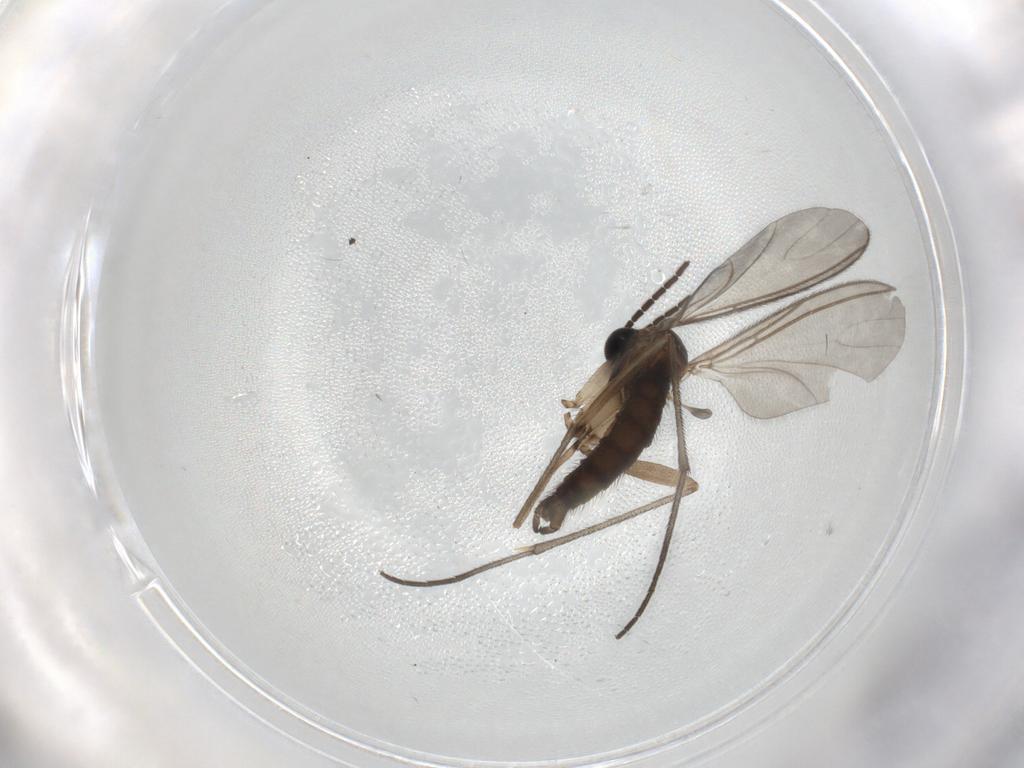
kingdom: Animalia
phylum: Arthropoda
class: Insecta
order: Diptera
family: Sciaridae
